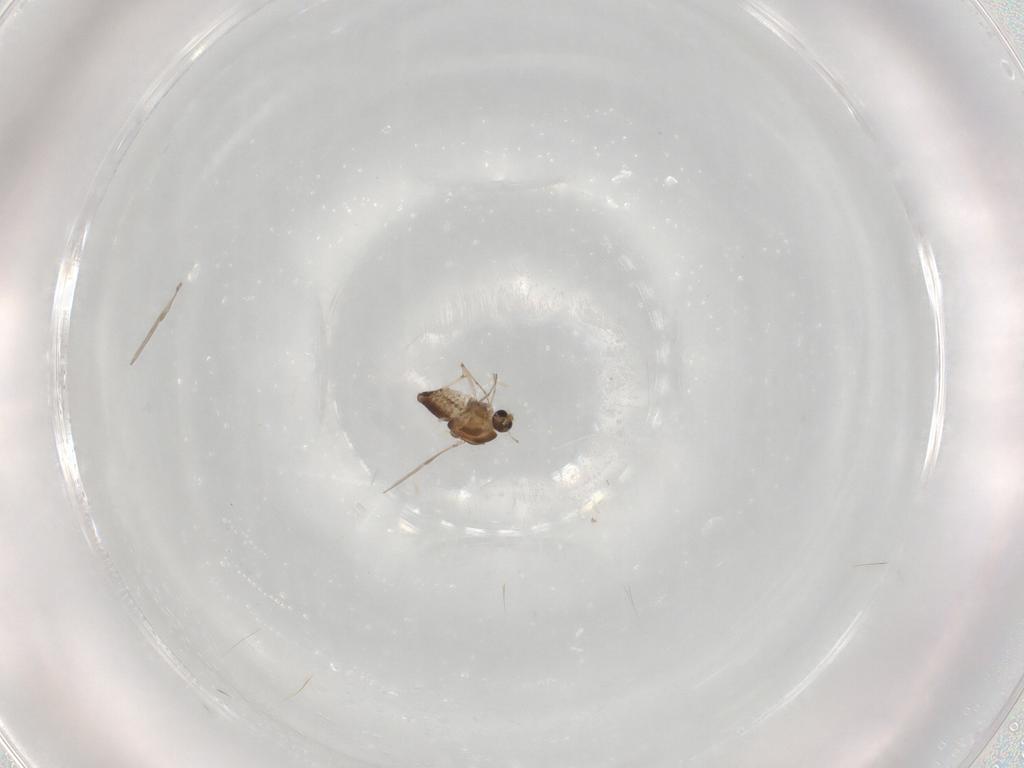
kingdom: Animalia
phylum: Arthropoda
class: Insecta
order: Diptera
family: Chironomidae
